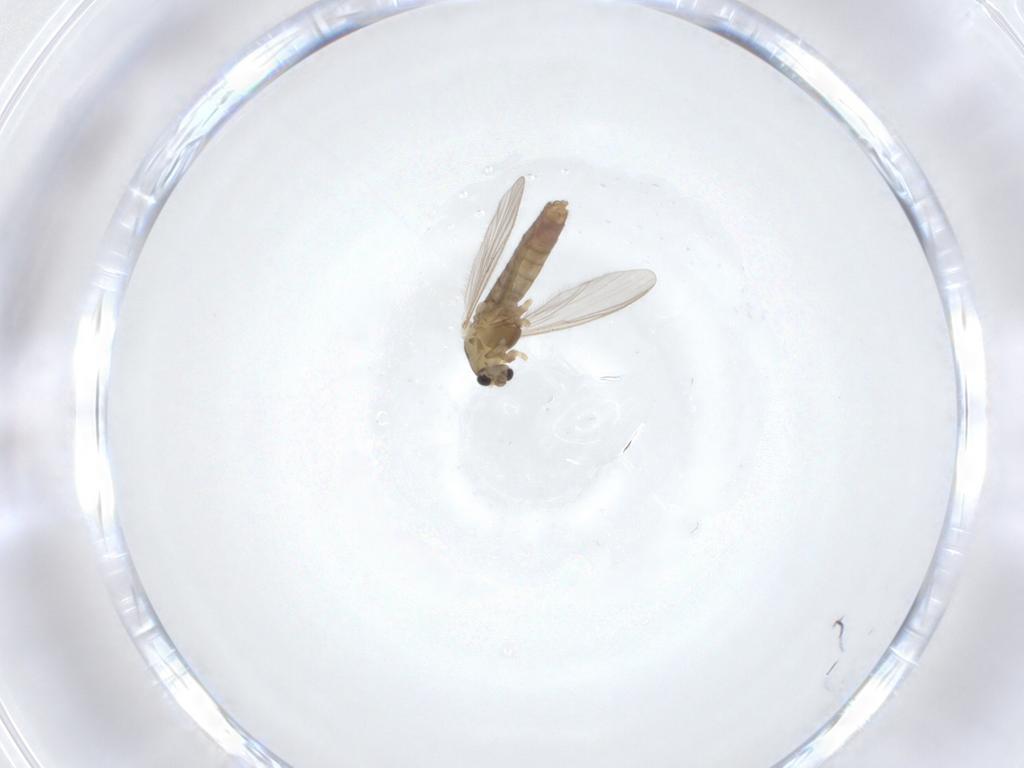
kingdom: Animalia
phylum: Arthropoda
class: Insecta
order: Diptera
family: Chironomidae
